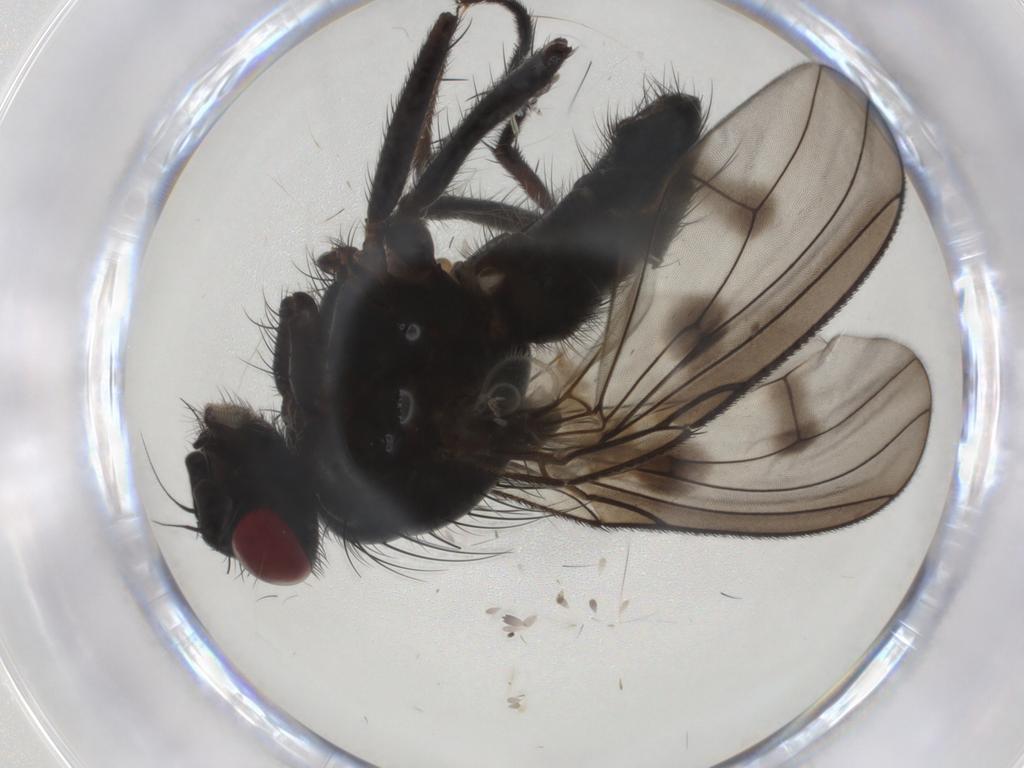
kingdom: Animalia
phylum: Arthropoda
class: Insecta
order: Diptera
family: Muscidae
